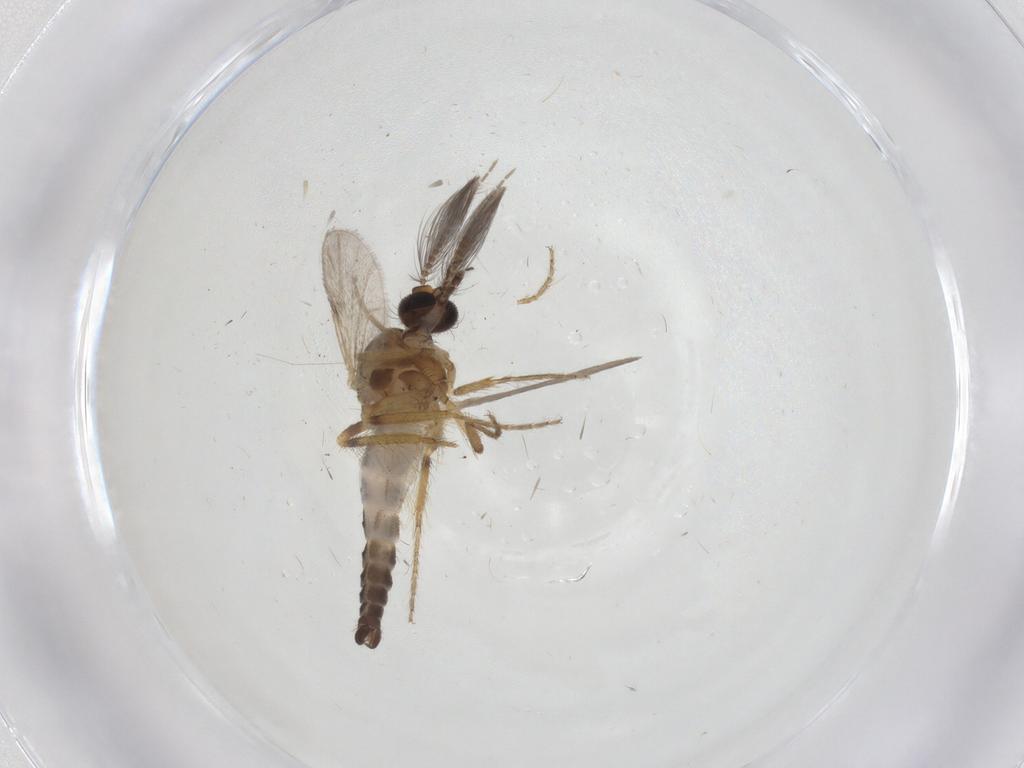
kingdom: Animalia
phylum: Arthropoda
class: Insecta
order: Diptera
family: Ceratopogonidae
